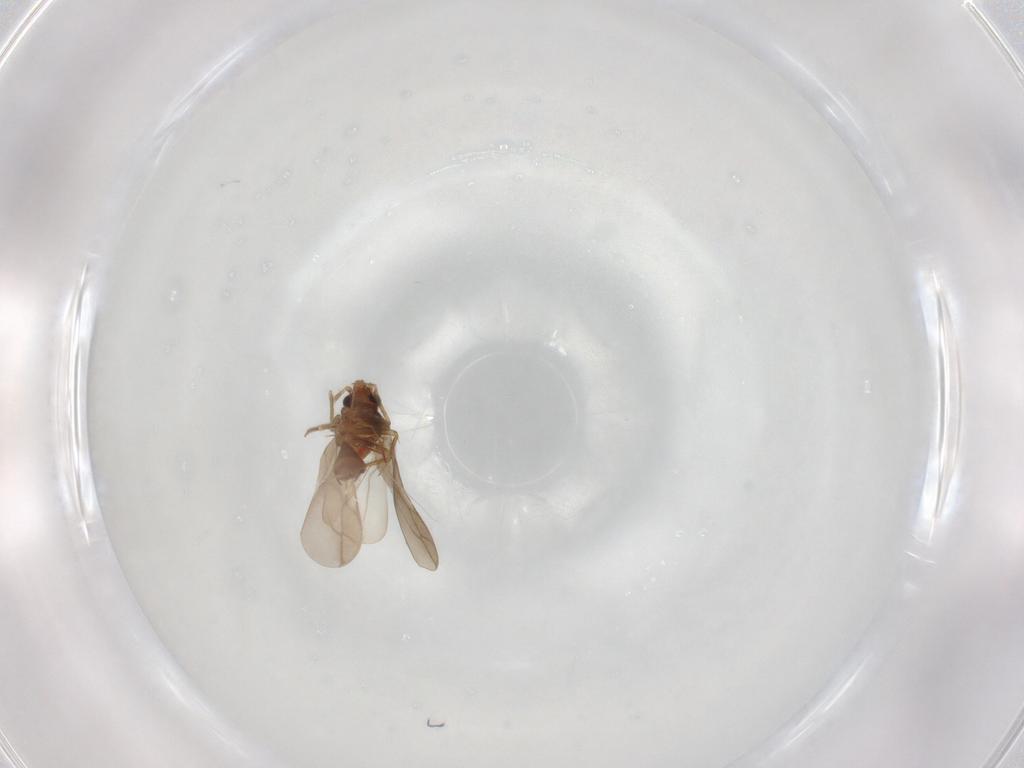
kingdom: Animalia
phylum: Arthropoda
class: Insecta
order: Hemiptera
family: Ceratocombidae
